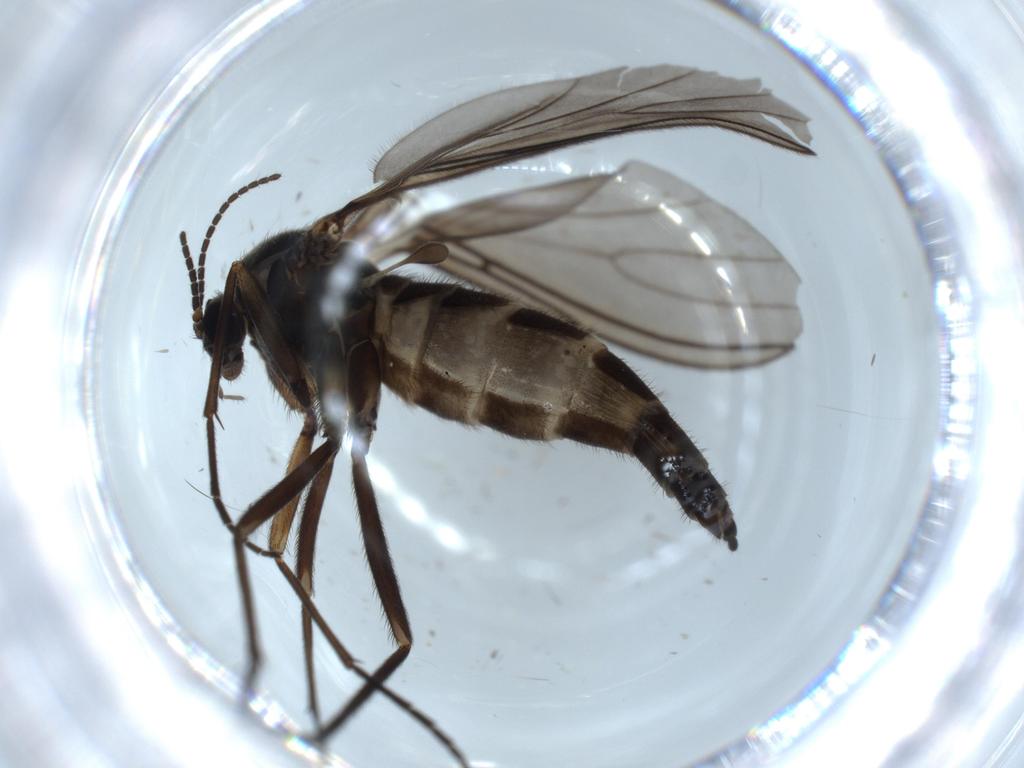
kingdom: Animalia
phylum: Arthropoda
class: Insecta
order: Diptera
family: Sciaridae
